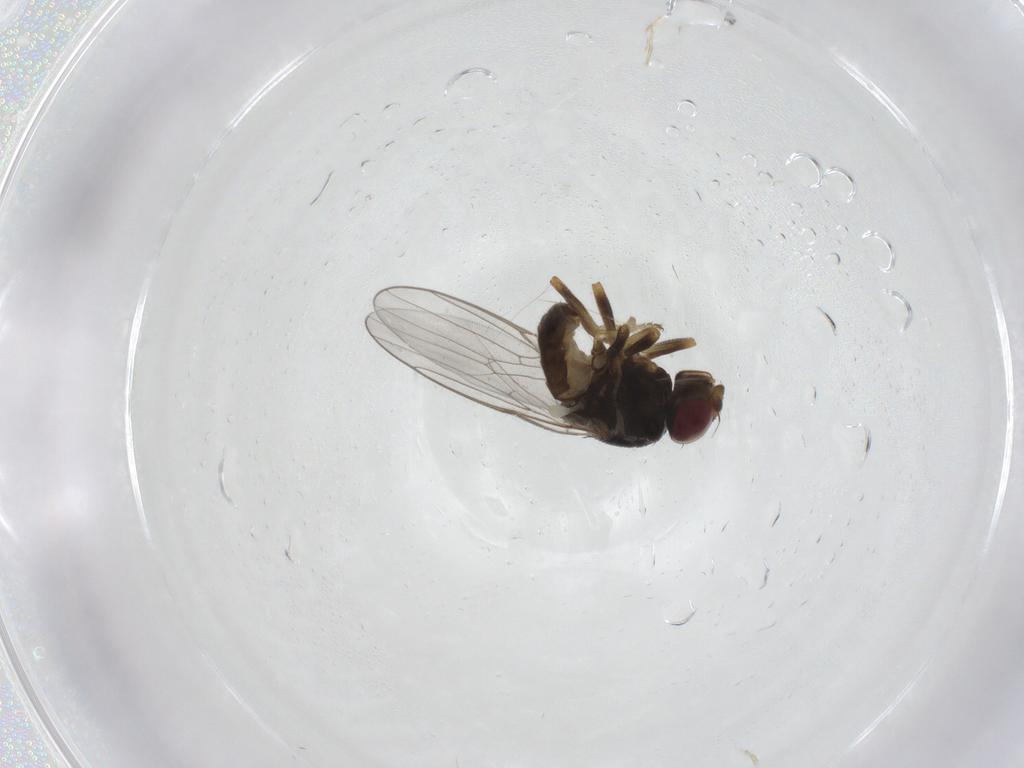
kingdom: Animalia
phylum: Arthropoda
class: Insecta
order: Diptera
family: Chloropidae
